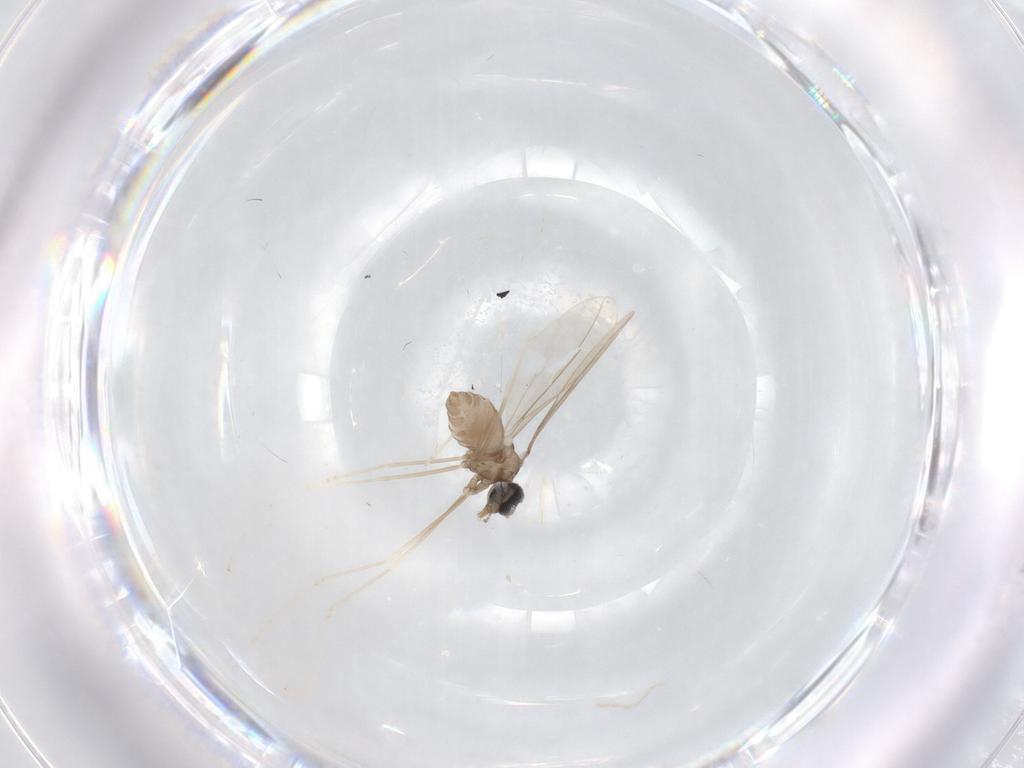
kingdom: Animalia
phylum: Arthropoda
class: Insecta
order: Diptera
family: Cecidomyiidae
